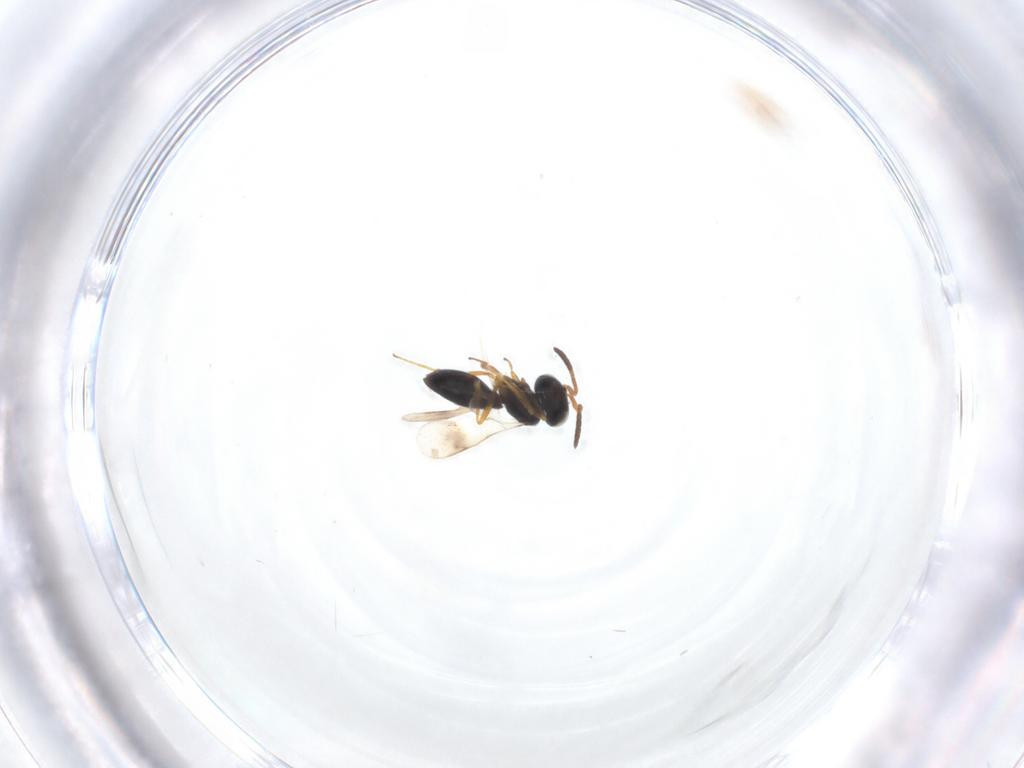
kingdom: Animalia
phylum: Arthropoda
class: Insecta
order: Hymenoptera
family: Scelionidae
